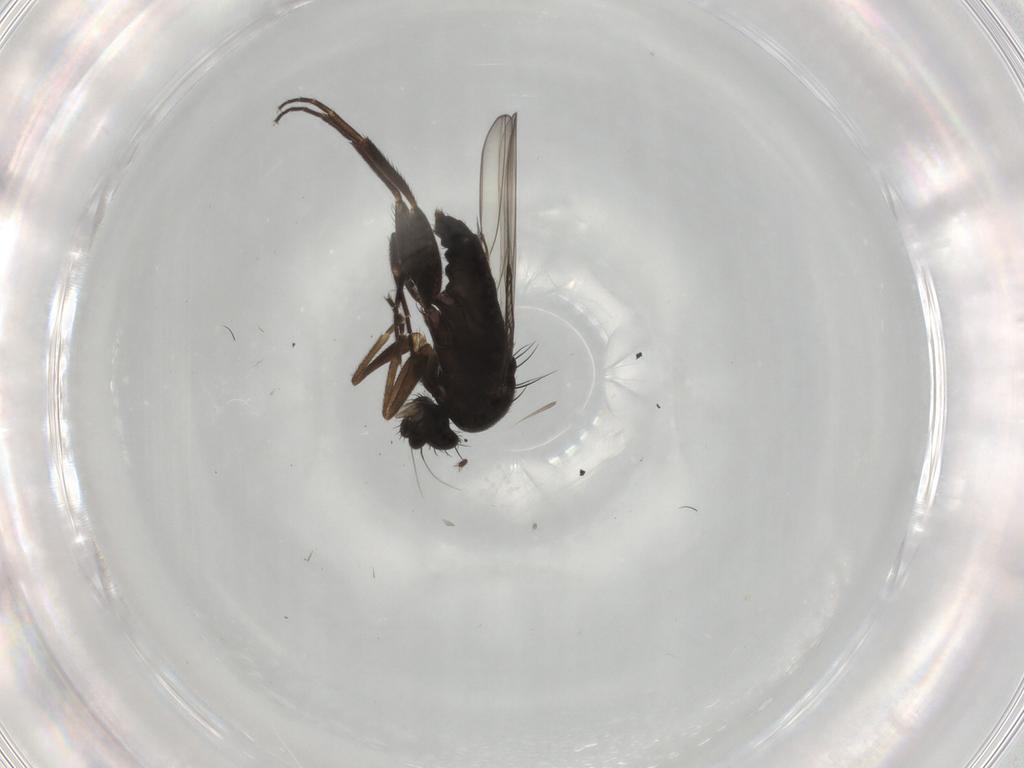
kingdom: Animalia
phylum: Arthropoda
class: Insecta
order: Diptera
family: Phoridae
